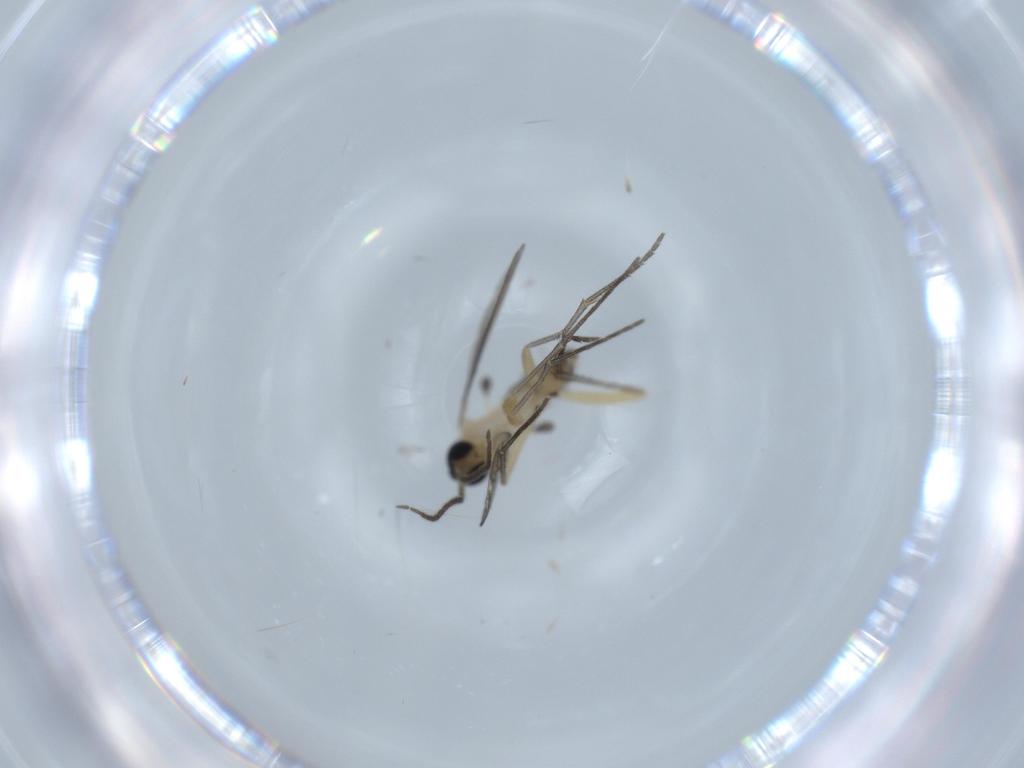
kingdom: Animalia
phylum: Arthropoda
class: Insecta
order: Diptera
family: Sciaridae
